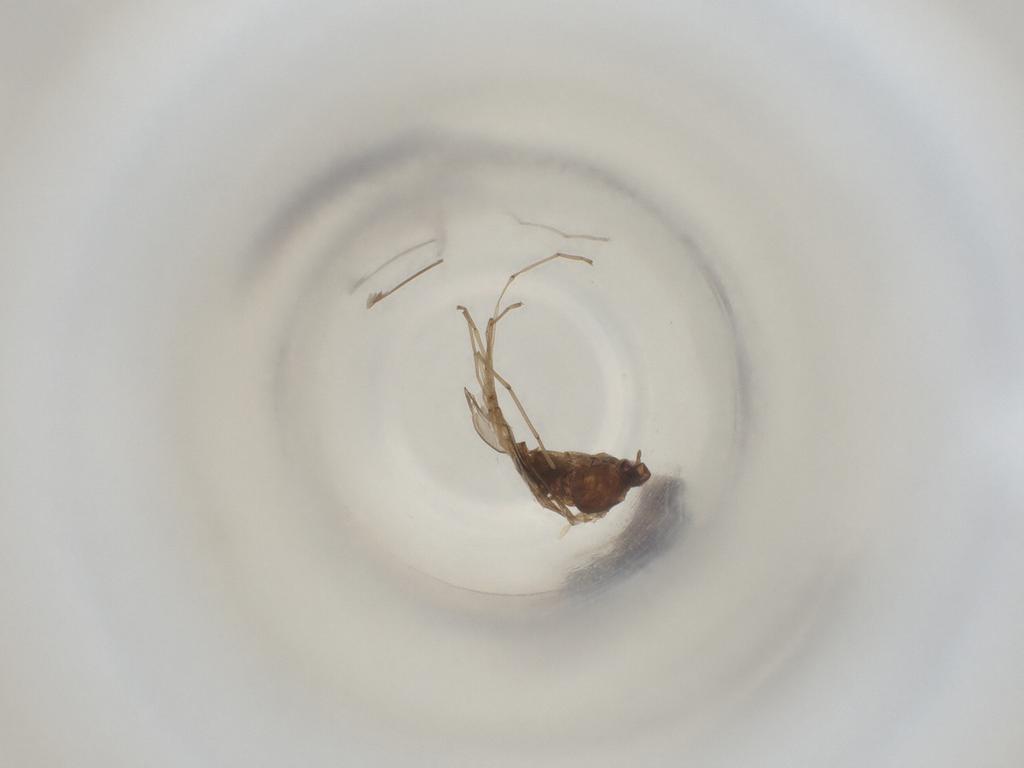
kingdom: Animalia
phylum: Arthropoda
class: Insecta
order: Diptera
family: Cecidomyiidae
